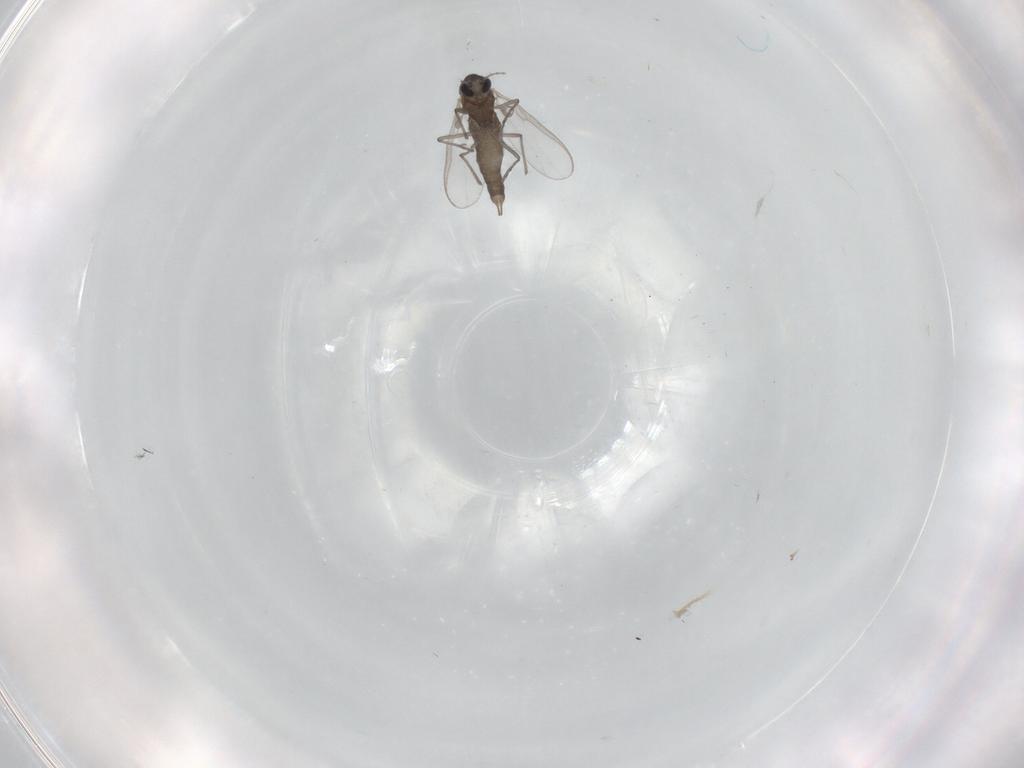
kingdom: Animalia
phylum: Arthropoda
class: Insecta
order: Diptera
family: Chironomidae
